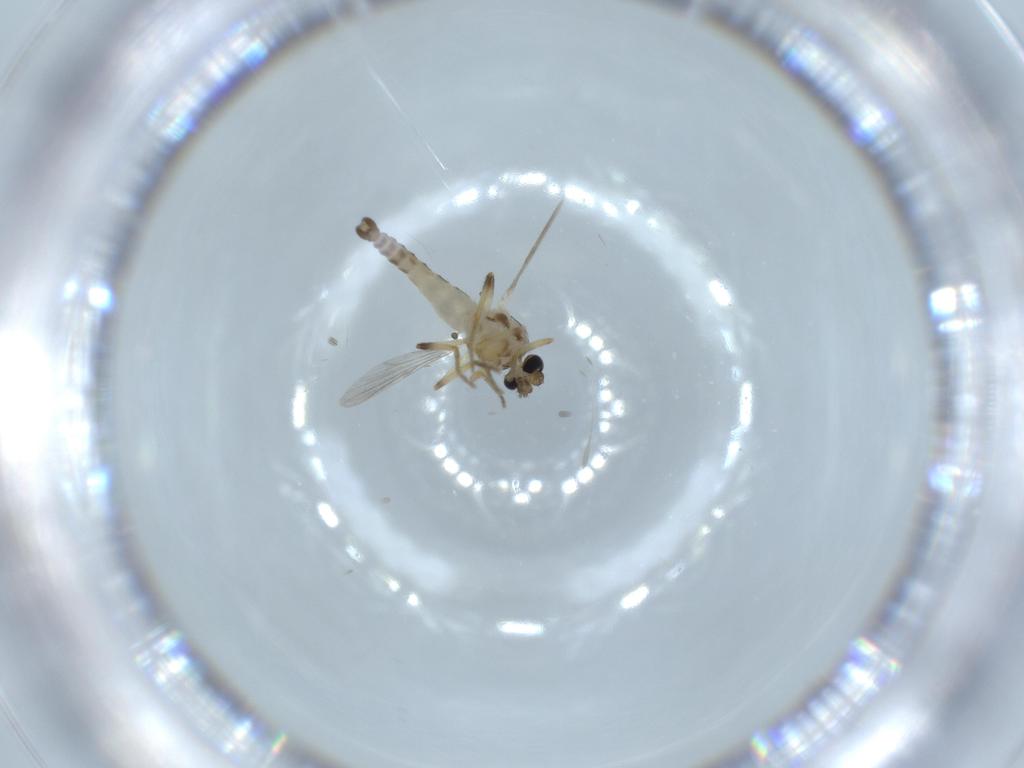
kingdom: Animalia
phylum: Arthropoda
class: Insecta
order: Diptera
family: Ceratopogonidae
